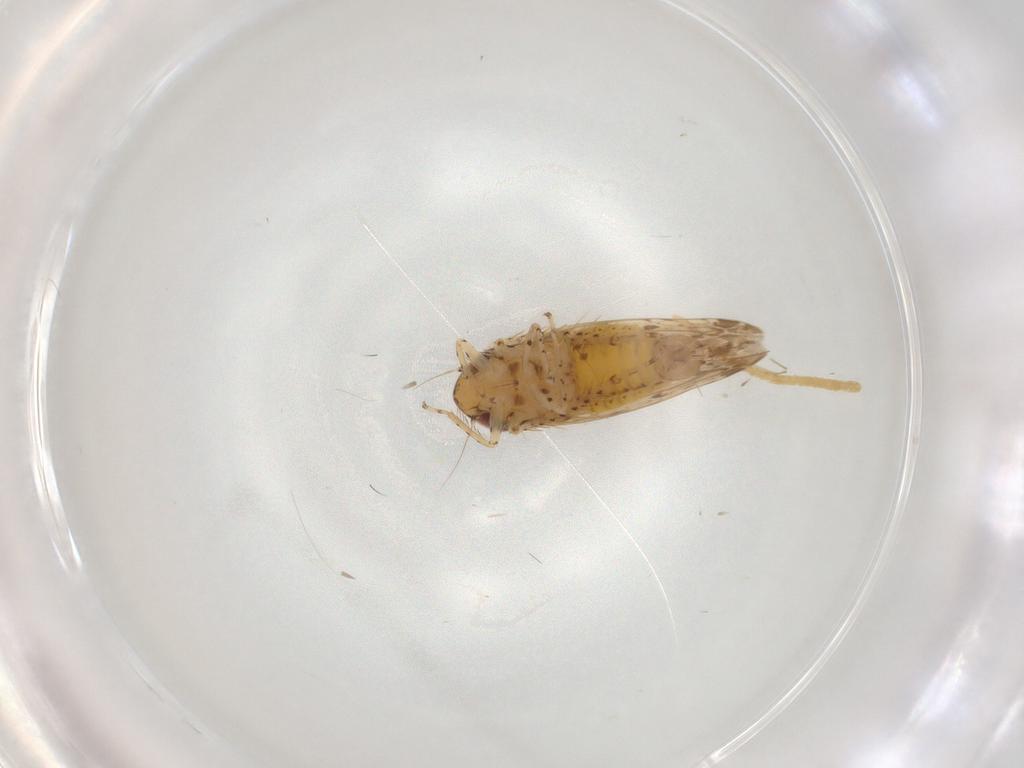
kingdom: Animalia
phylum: Arthropoda
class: Insecta
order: Hemiptera
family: Cicadellidae
